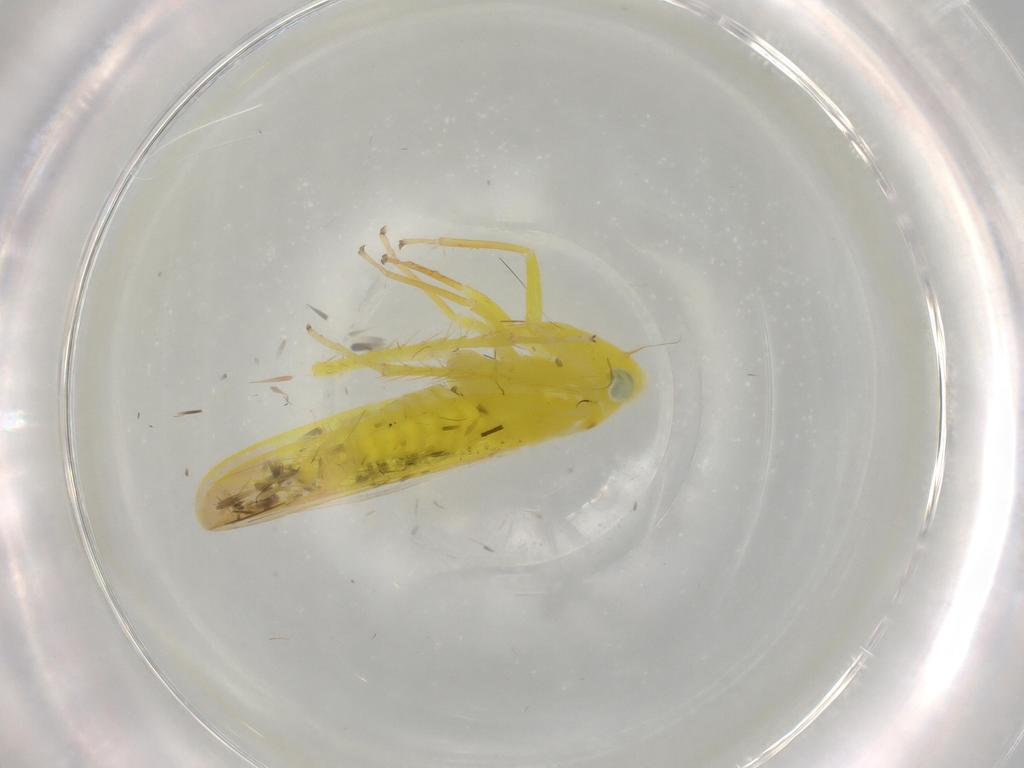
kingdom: Animalia
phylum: Arthropoda
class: Insecta
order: Hemiptera
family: Cicadellidae
